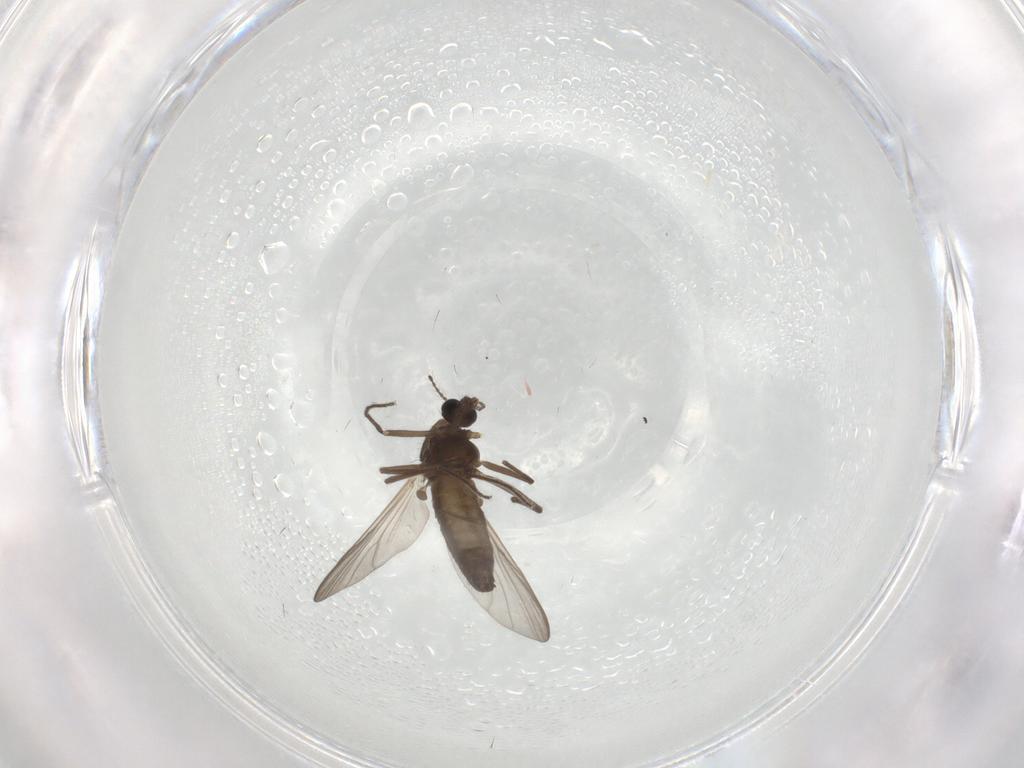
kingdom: Animalia
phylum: Arthropoda
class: Insecta
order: Diptera
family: Chironomidae
